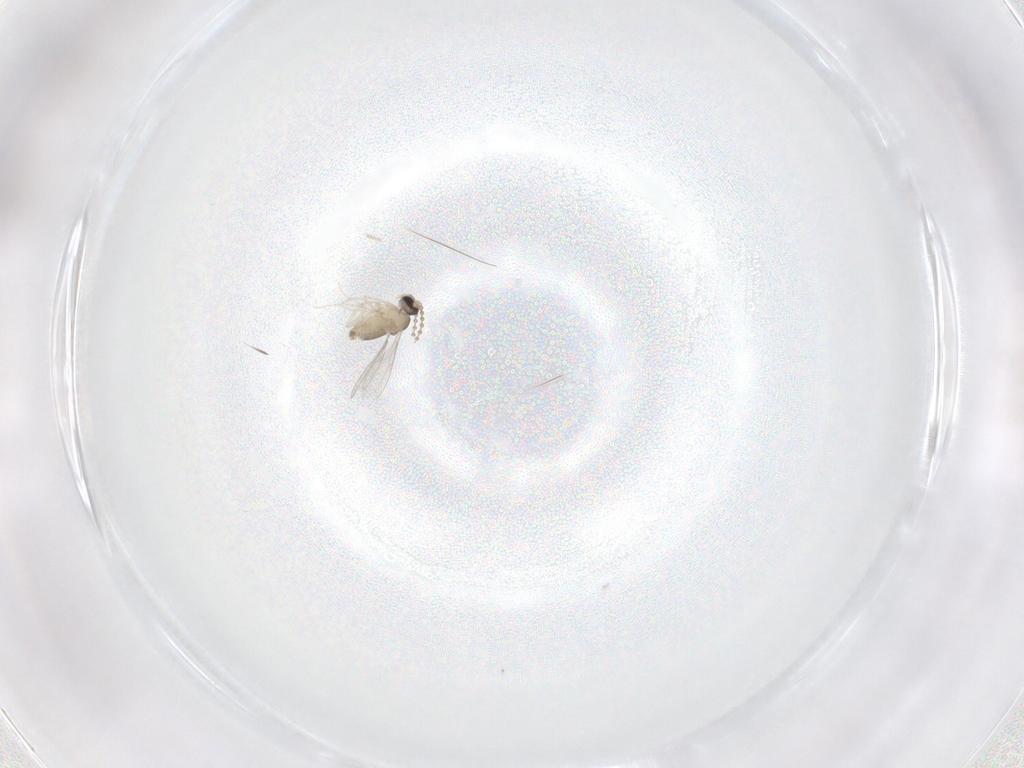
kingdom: Animalia
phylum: Arthropoda
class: Insecta
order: Diptera
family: Cecidomyiidae
